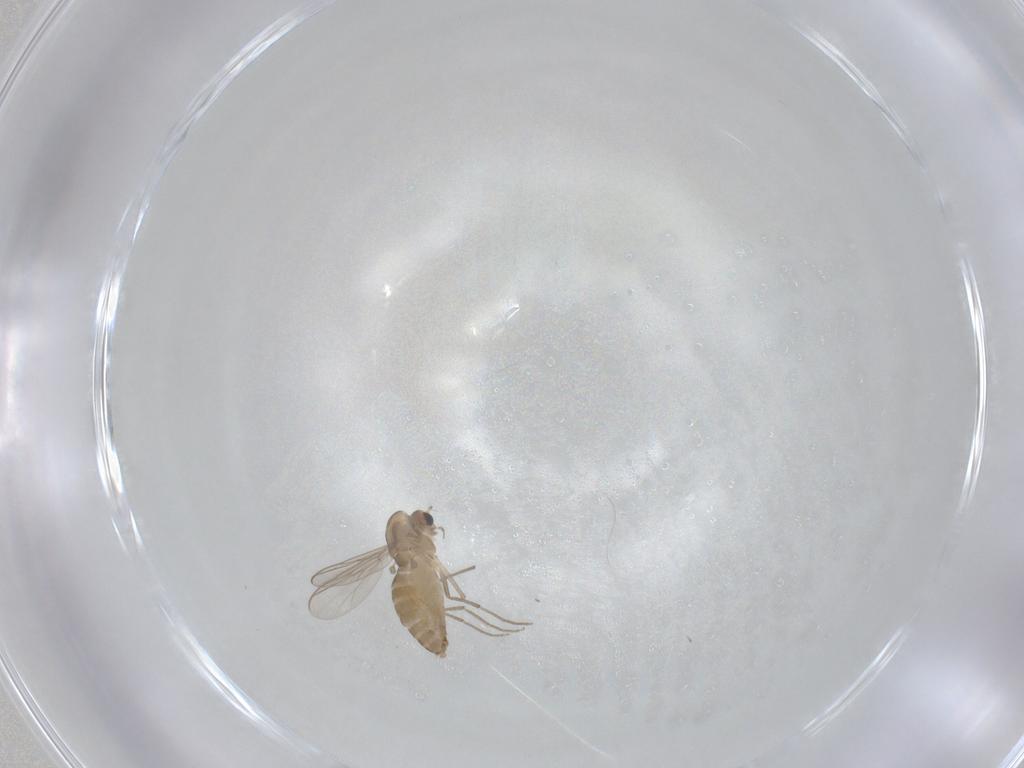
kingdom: Animalia
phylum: Arthropoda
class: Insecta
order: Diptera
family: Chironomidae
